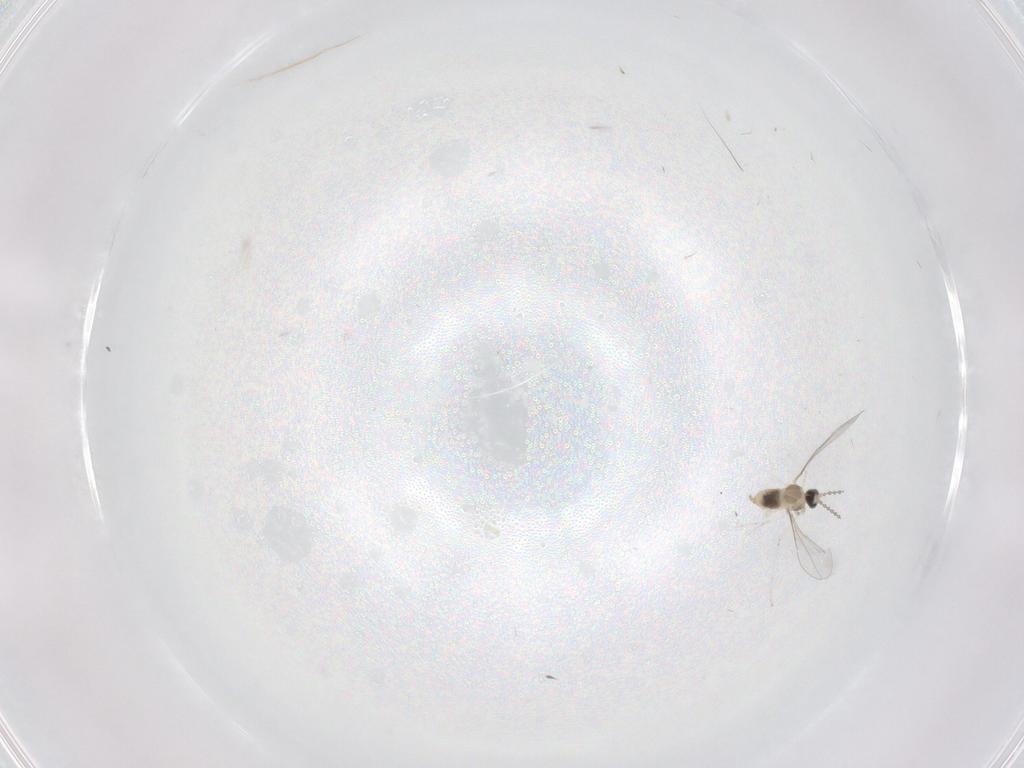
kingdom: Animalia
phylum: Arthropoda
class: Insecta
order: Diptera
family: Cecidomyiidae
